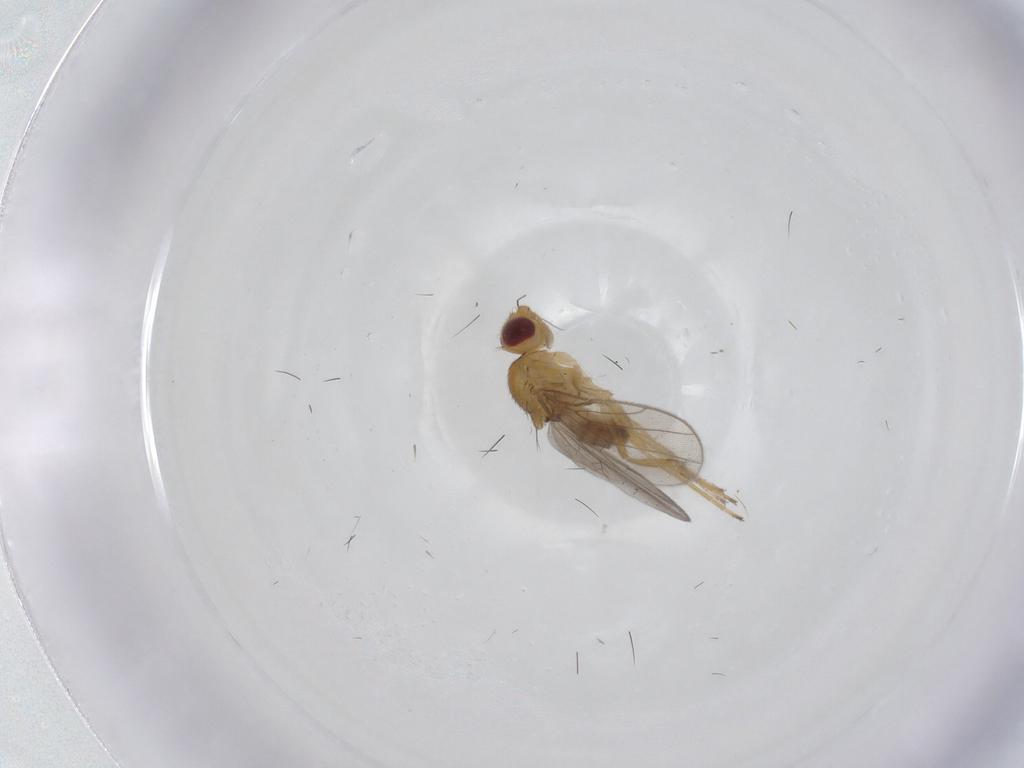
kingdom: Animalia
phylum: Arthropoda
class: Insecta
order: Diptera
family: Chloropidae
